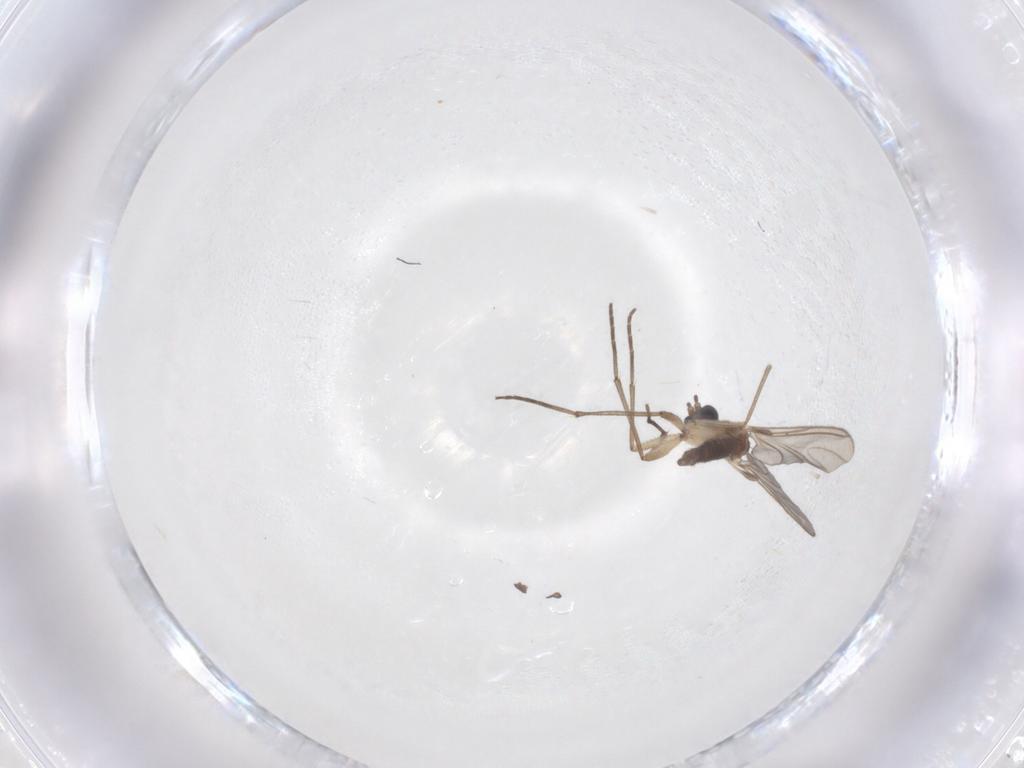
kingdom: Animalia
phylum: Arthropoda
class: Insecta
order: Diptera
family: Sciaridae
